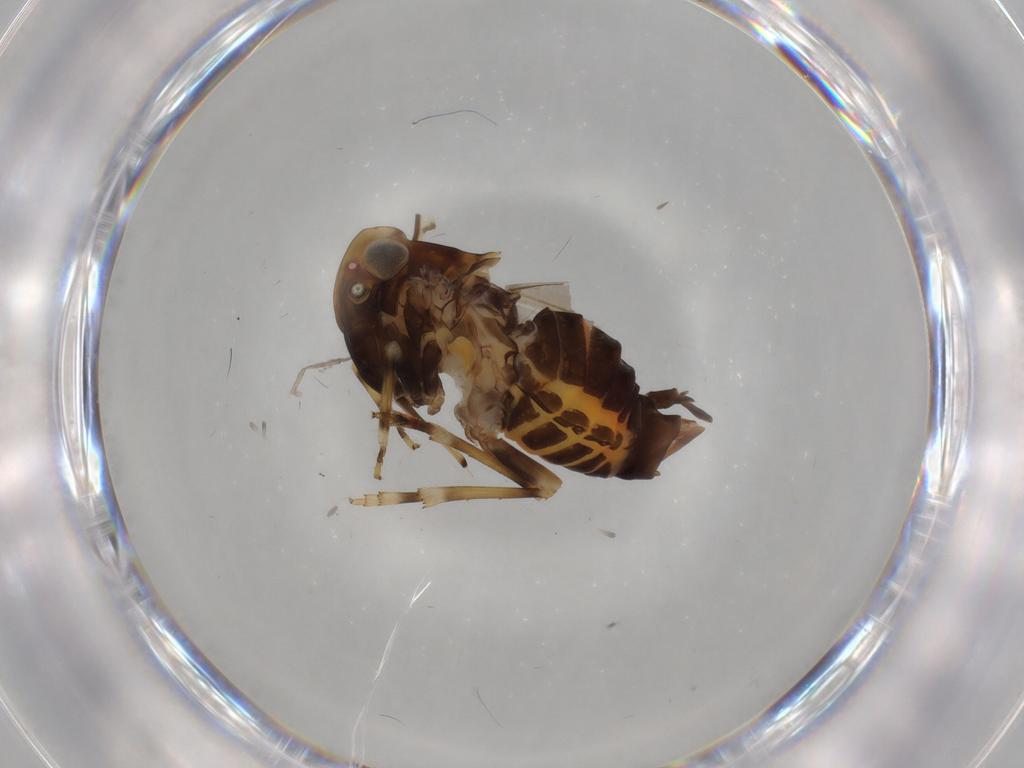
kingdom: Animalia
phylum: Arthropoda
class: Insecta
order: Hemiptera
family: Cixiidae
